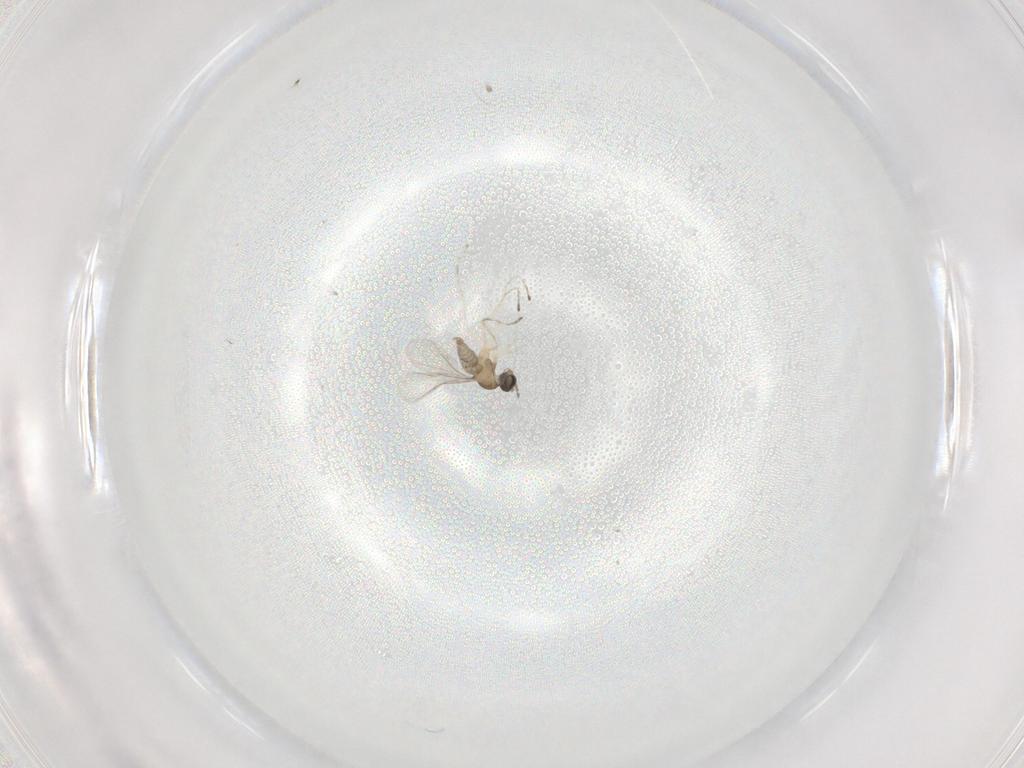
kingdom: Animalia
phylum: Arthropoda
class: Insecta
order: Diptera
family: Cecidomyiidae
